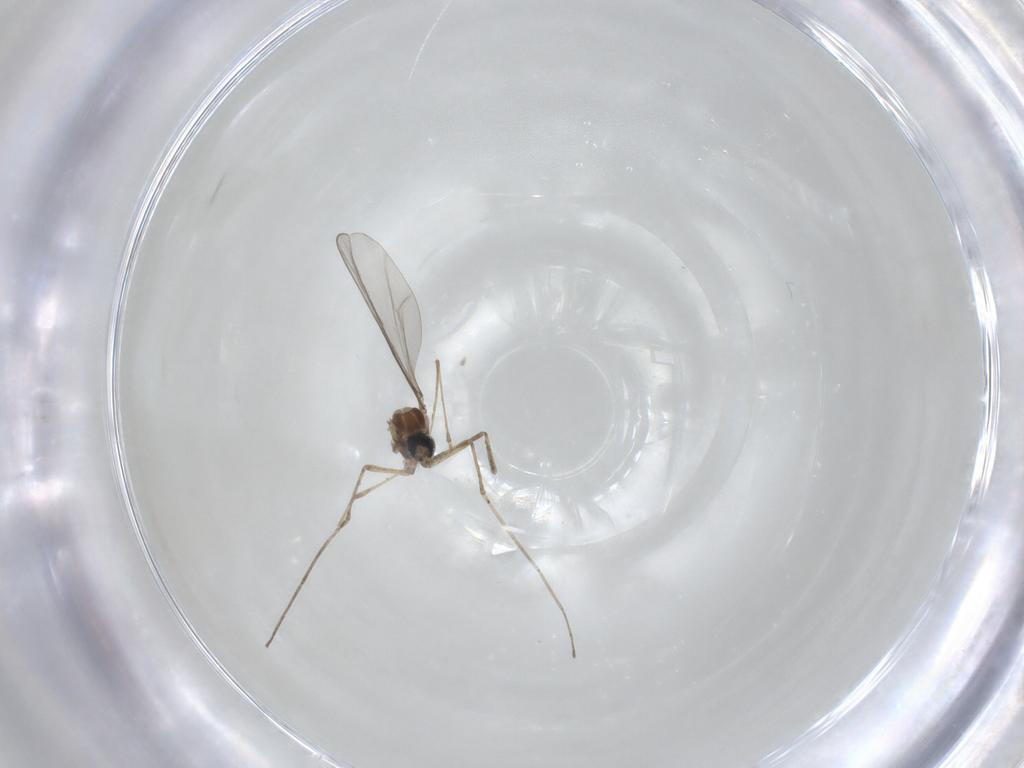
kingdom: Animalia
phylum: Arthropoda
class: Insecta
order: Diptera
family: Cecidomyiidae
